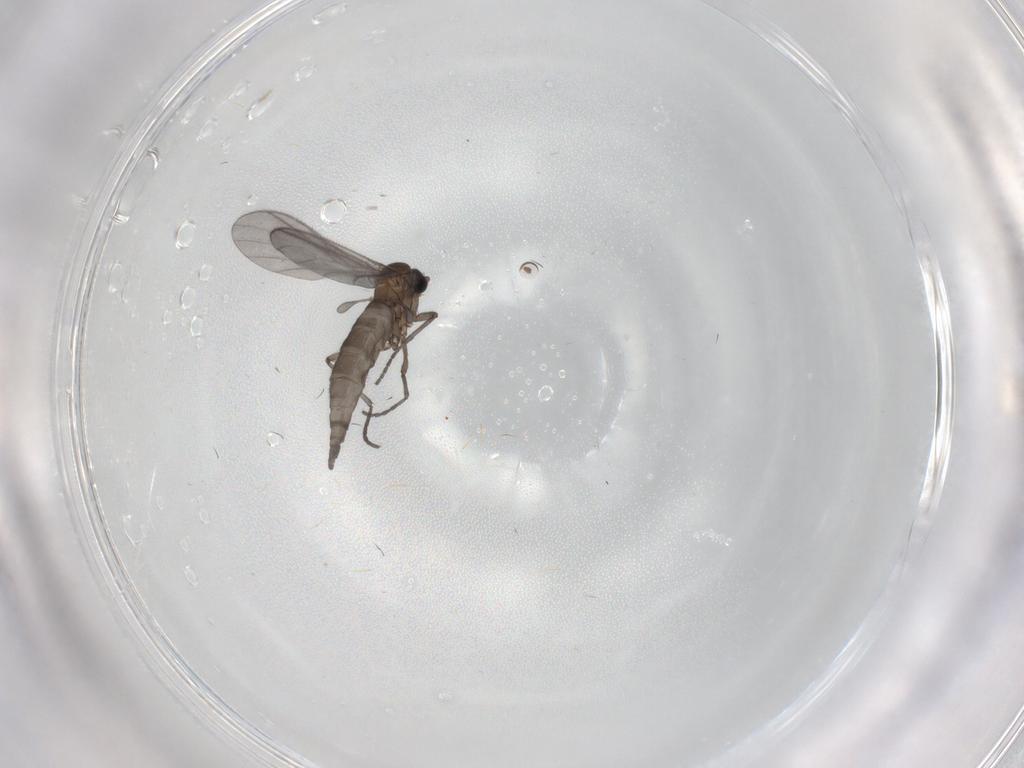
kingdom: Animalia
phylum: Arthropoda
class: Insecta
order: Diptera
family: Sciaridae
